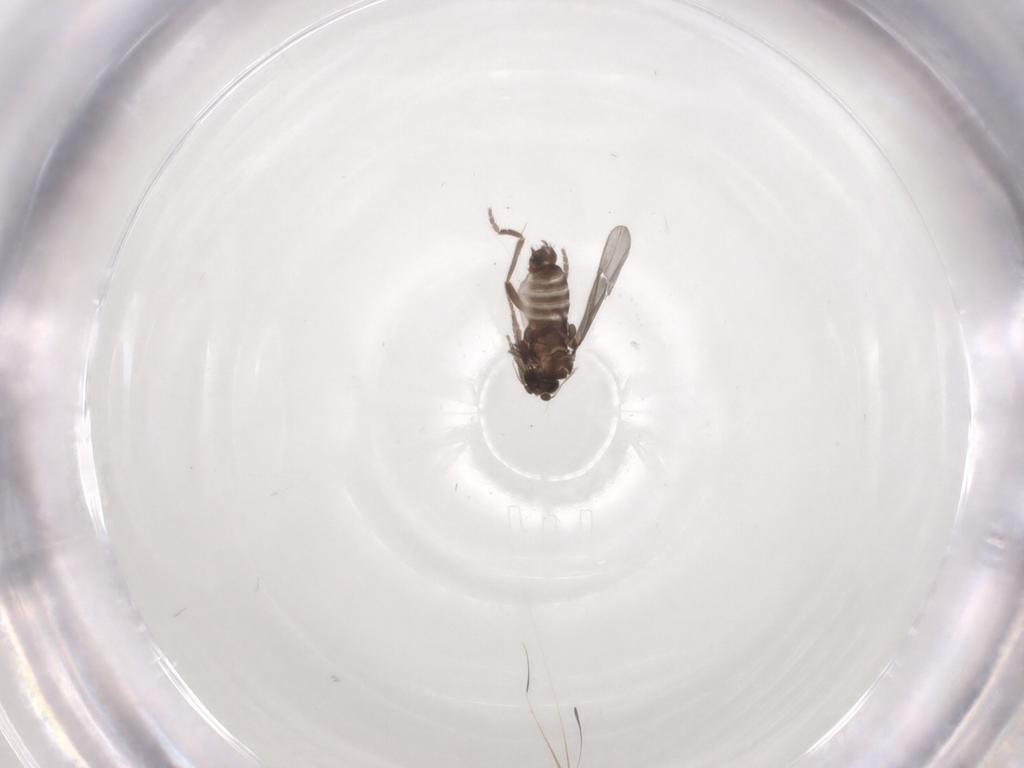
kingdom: Animalia
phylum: Arthropoda
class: Insecta
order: Diptera
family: Phoridae
